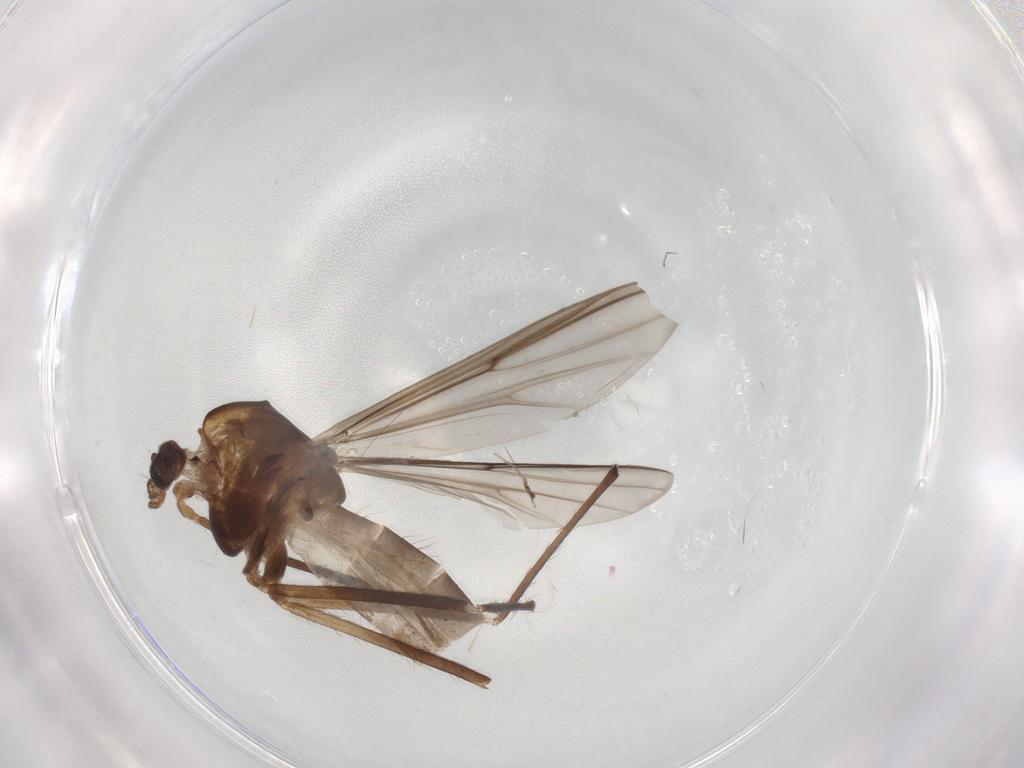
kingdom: Animalia
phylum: Arthropoda
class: Insecta
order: Diptera
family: Chironomidae
